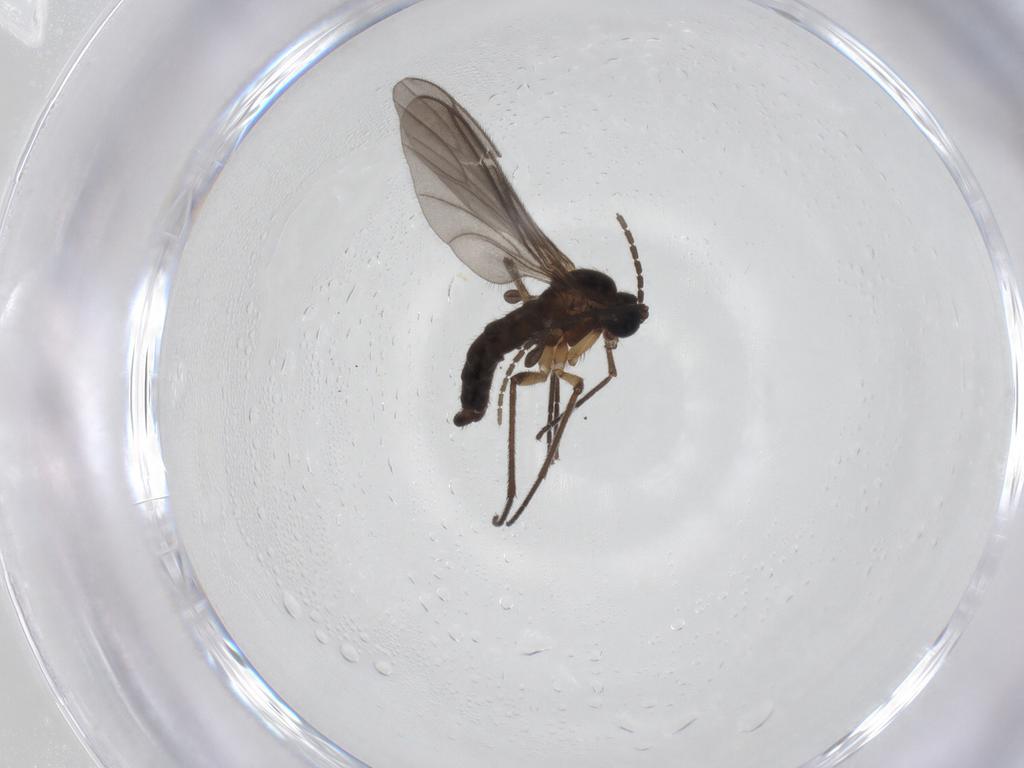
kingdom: Animalia
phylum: Arthropoda
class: Insecta
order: Diptera
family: Sciaridae
